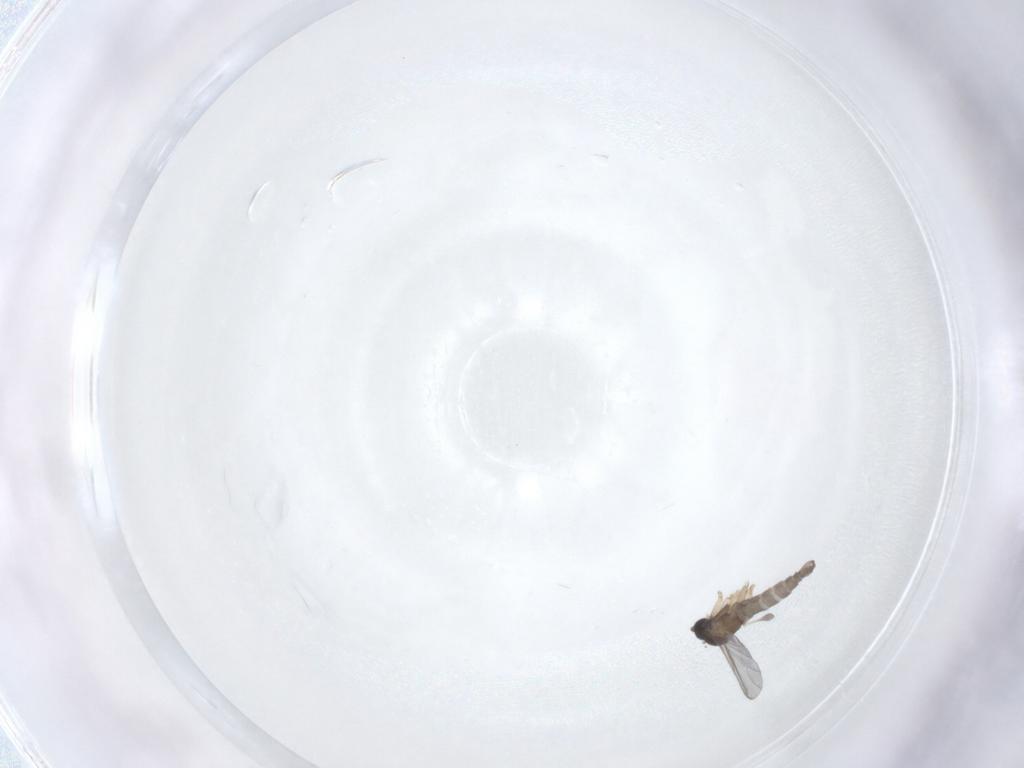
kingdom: Animalia
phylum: Arthropoda
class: Insecta
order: Diptera
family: Sciaridae
